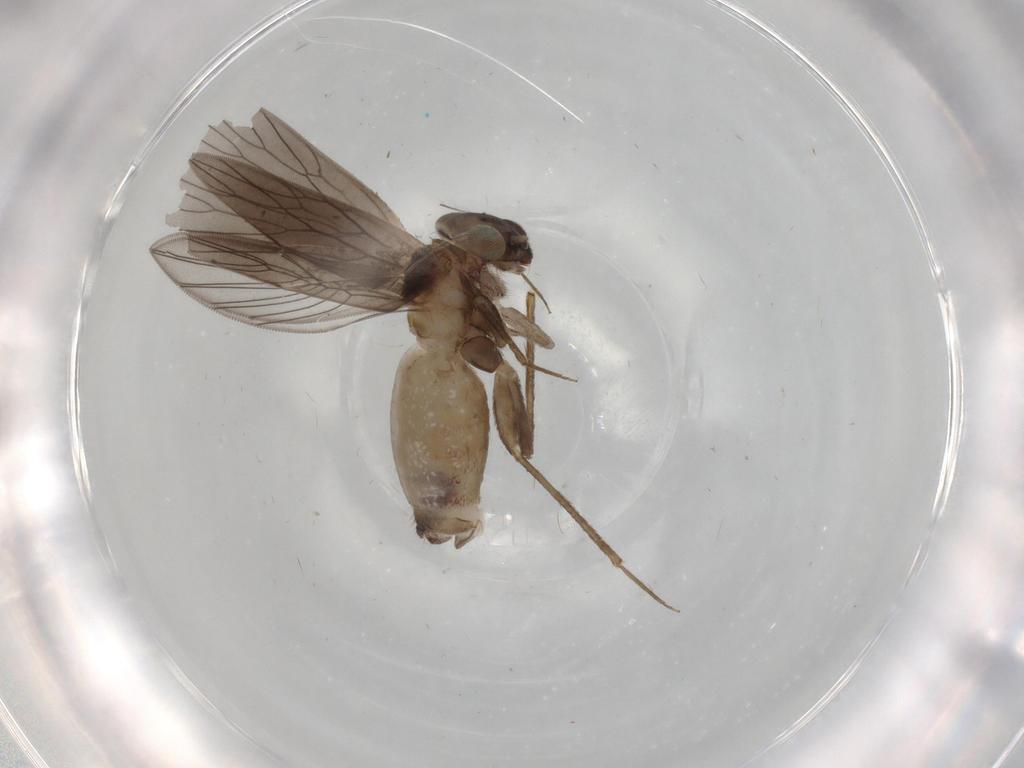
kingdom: Animalia
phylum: Arthropoda
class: Insecta
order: Psocodea
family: Lepidopsocidae
